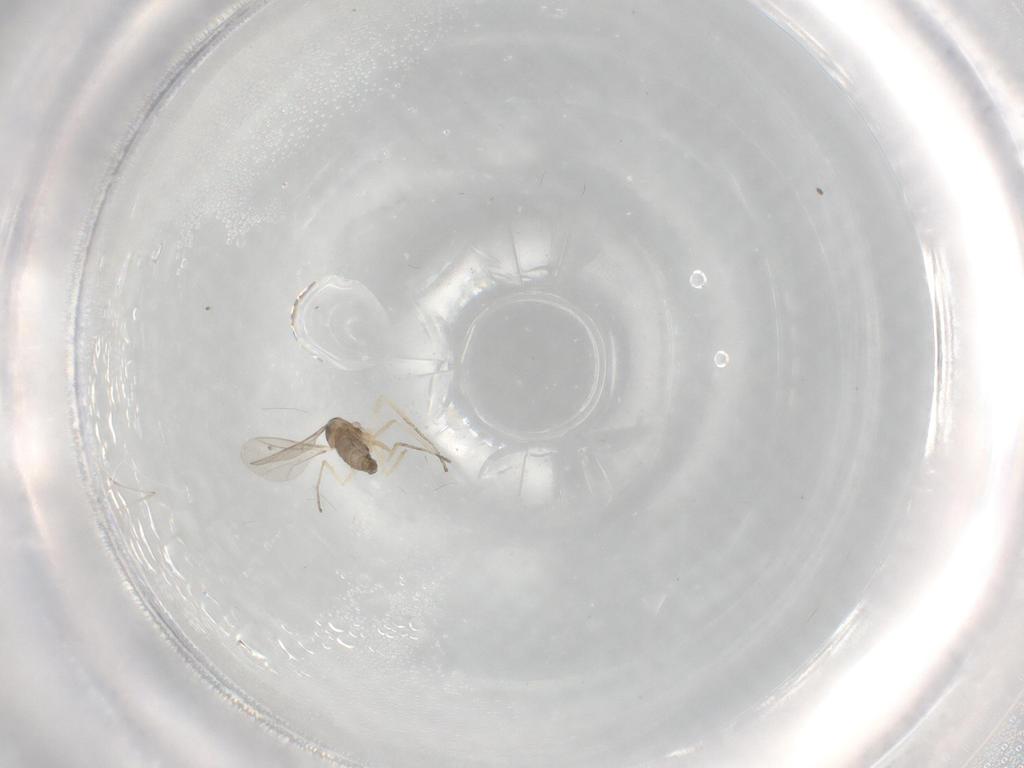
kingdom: Animalia
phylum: Arthropoda
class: Insecta
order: Diptera
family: Cecidomyiidae
